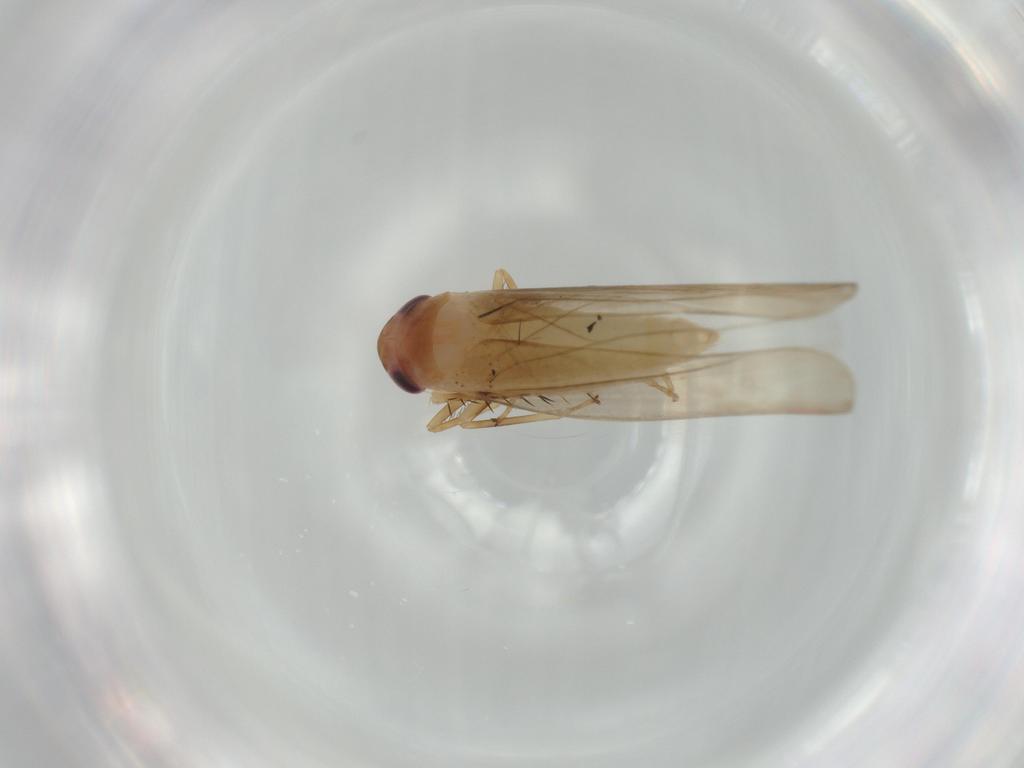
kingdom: Animalia
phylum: Arthropoda
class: Insecta
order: Hemiptera
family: Cicadellidae
